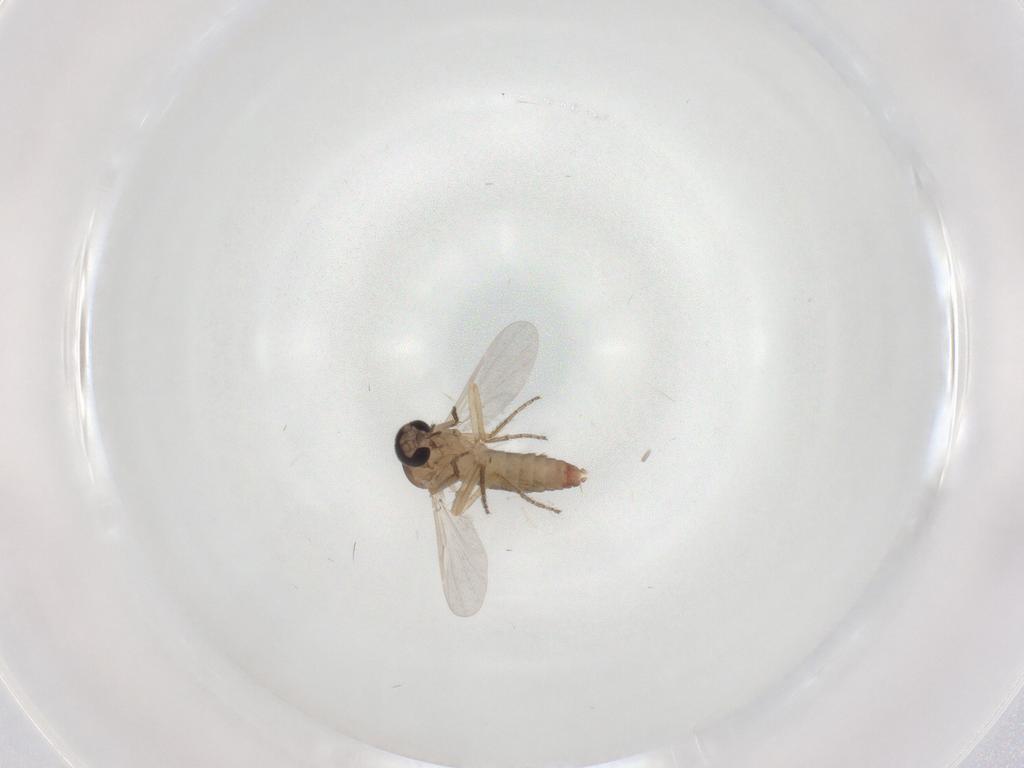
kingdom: Animalia
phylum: Arthropoda
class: Insecta
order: Diptera
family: Ceratopogonidae
